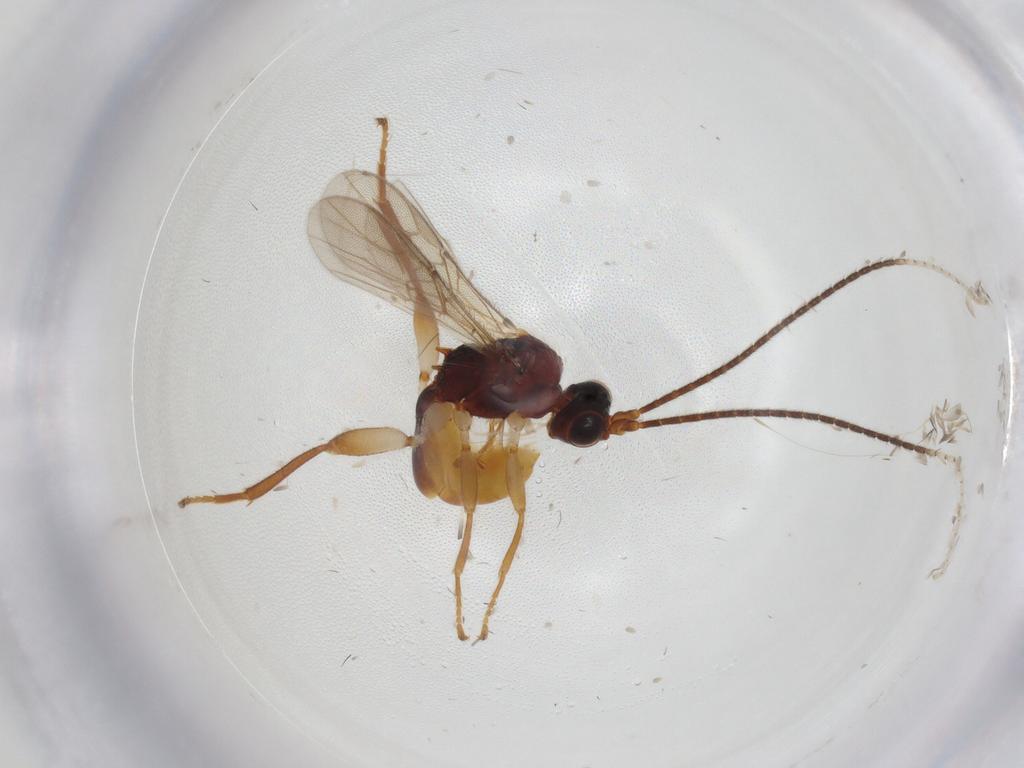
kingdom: Animalia
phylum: Arthropoda
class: Insecta
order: Hymenoptera
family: Braconidae
